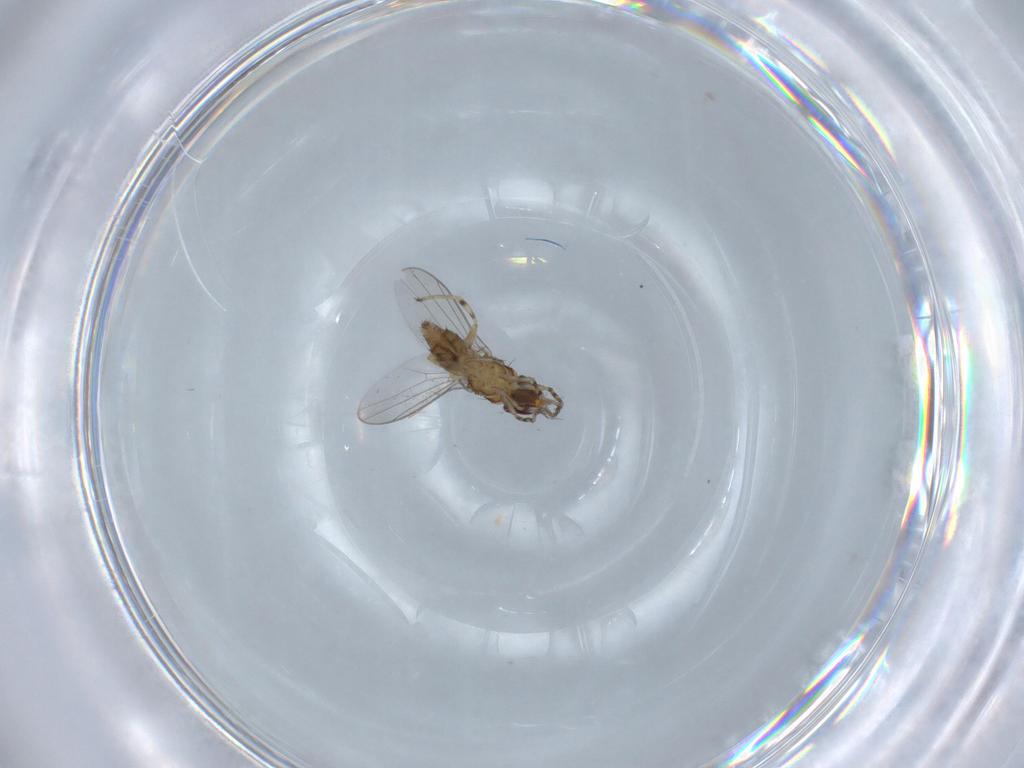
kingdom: Animalia
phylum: Arthropoda
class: Insecta
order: Diptera
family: Chloropidae
